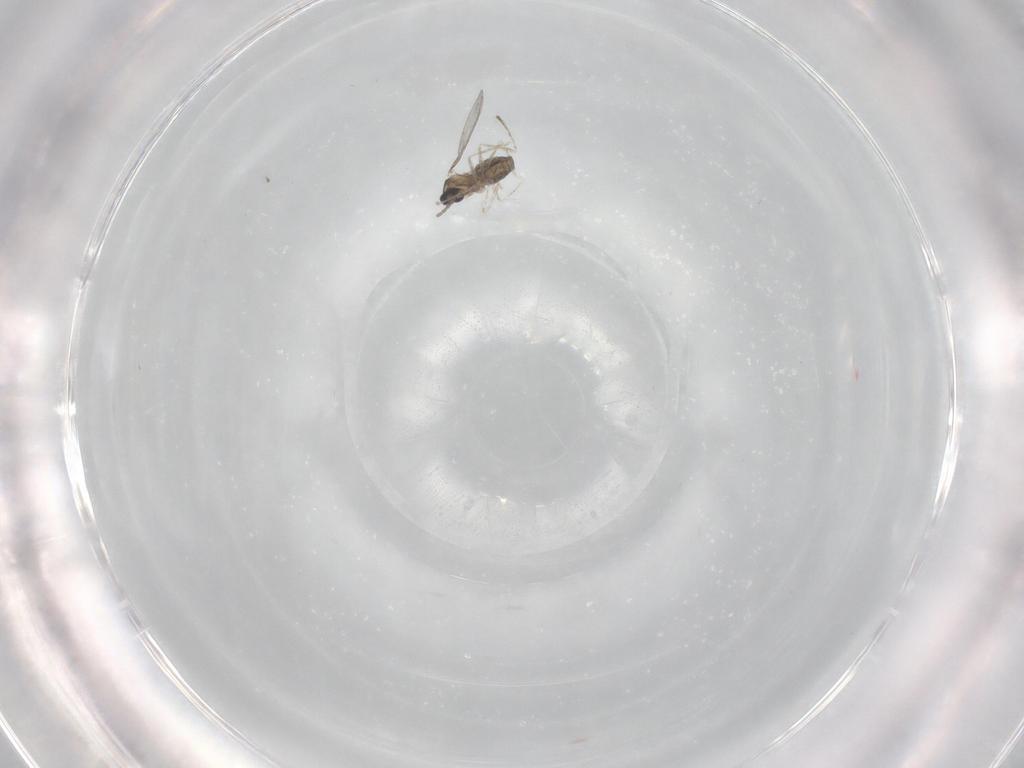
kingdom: Animalia
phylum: Arthropoda
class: Insecta
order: Diptera
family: Cecidomyiidae
